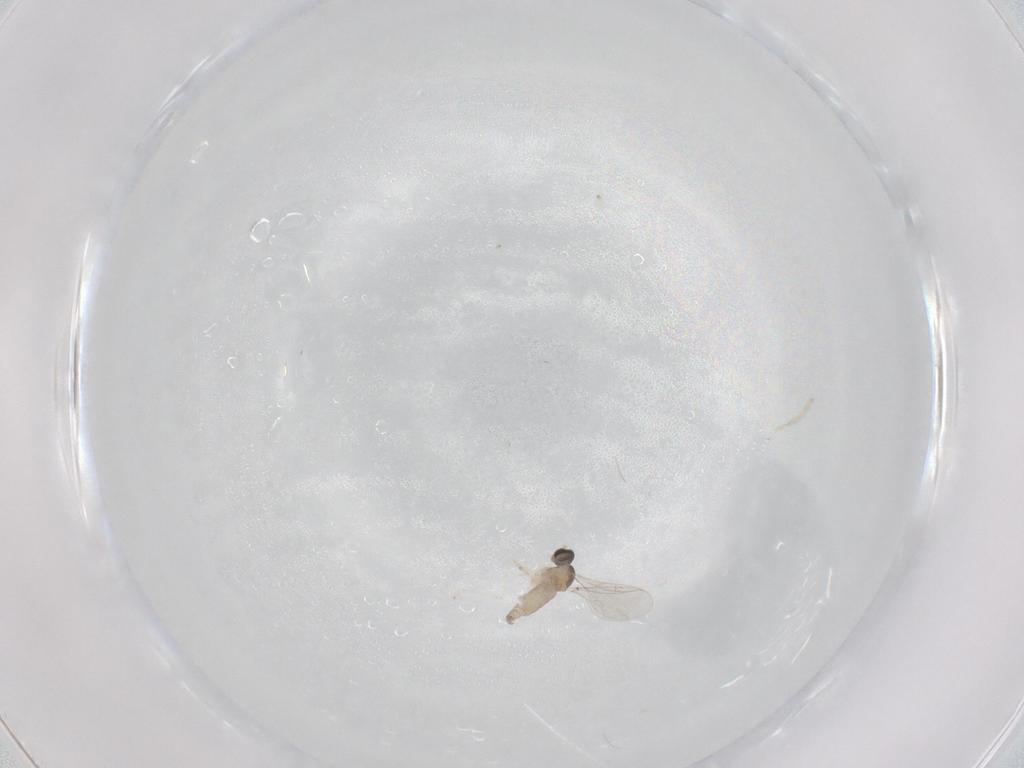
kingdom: Animalia
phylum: Arthropoda
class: Insecta
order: Diptera
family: Cecidomyiidae
